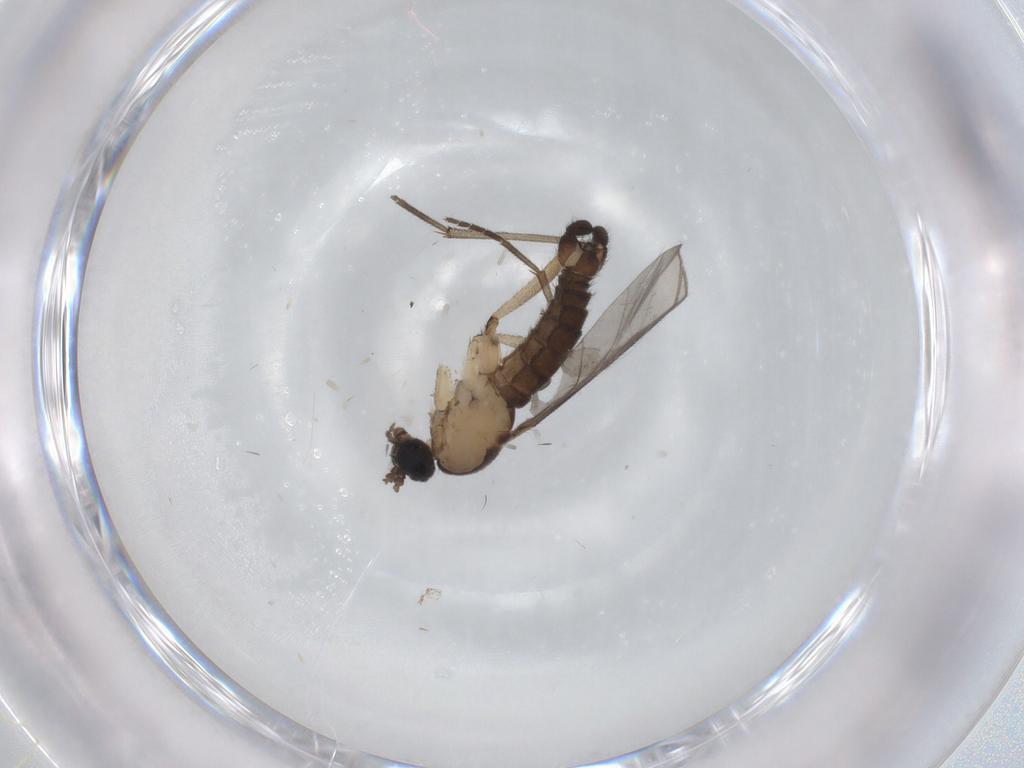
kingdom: Animalia
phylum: Arthropoda
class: Insecta
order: Diptera
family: Sciaridae
